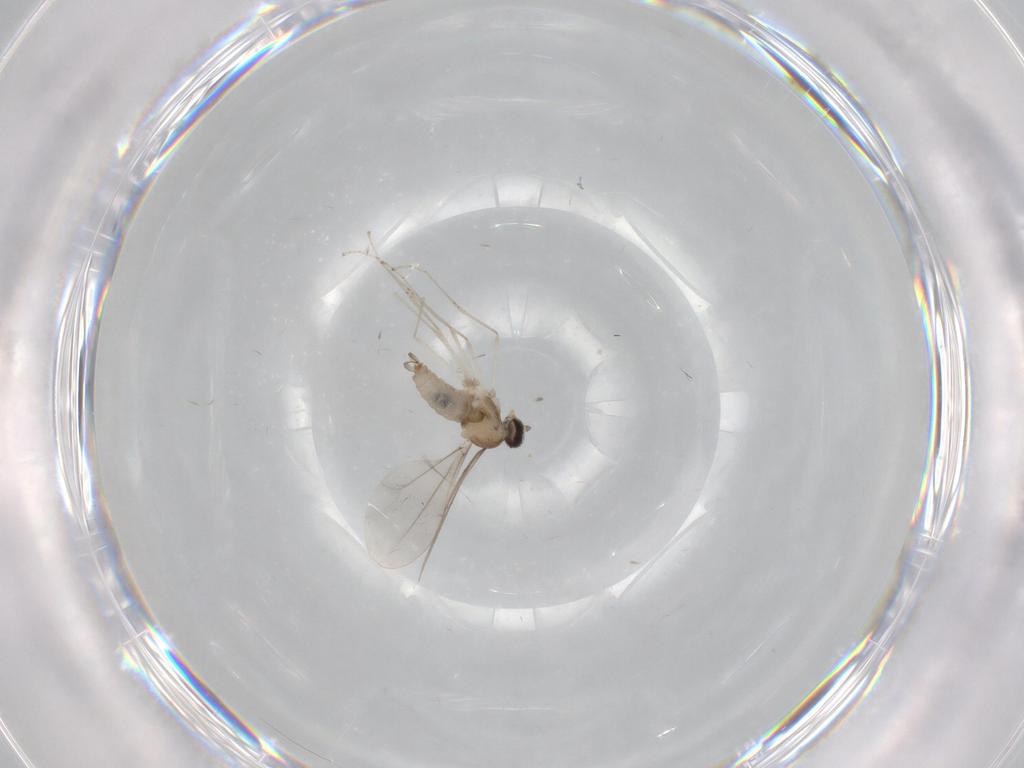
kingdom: Animalia
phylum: Arthropoda
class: Insecta
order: Diptera
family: Cecidomyiidae
